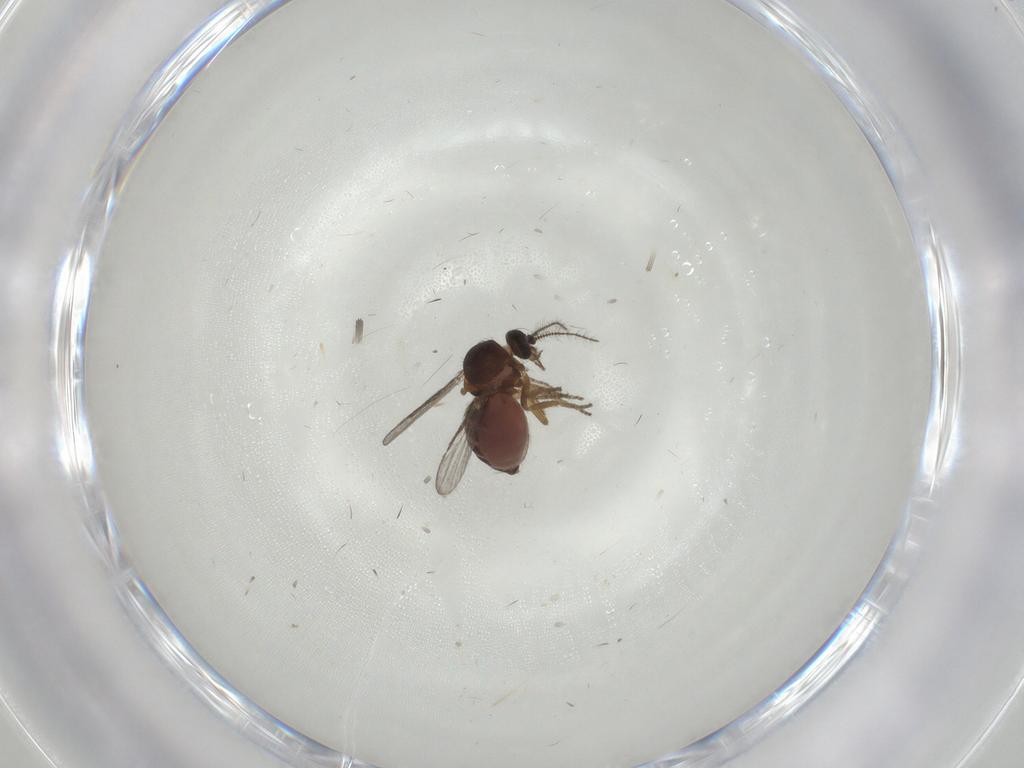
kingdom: Animalia
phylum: Arthropoda
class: Insecta
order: Diptera
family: Phoridae
